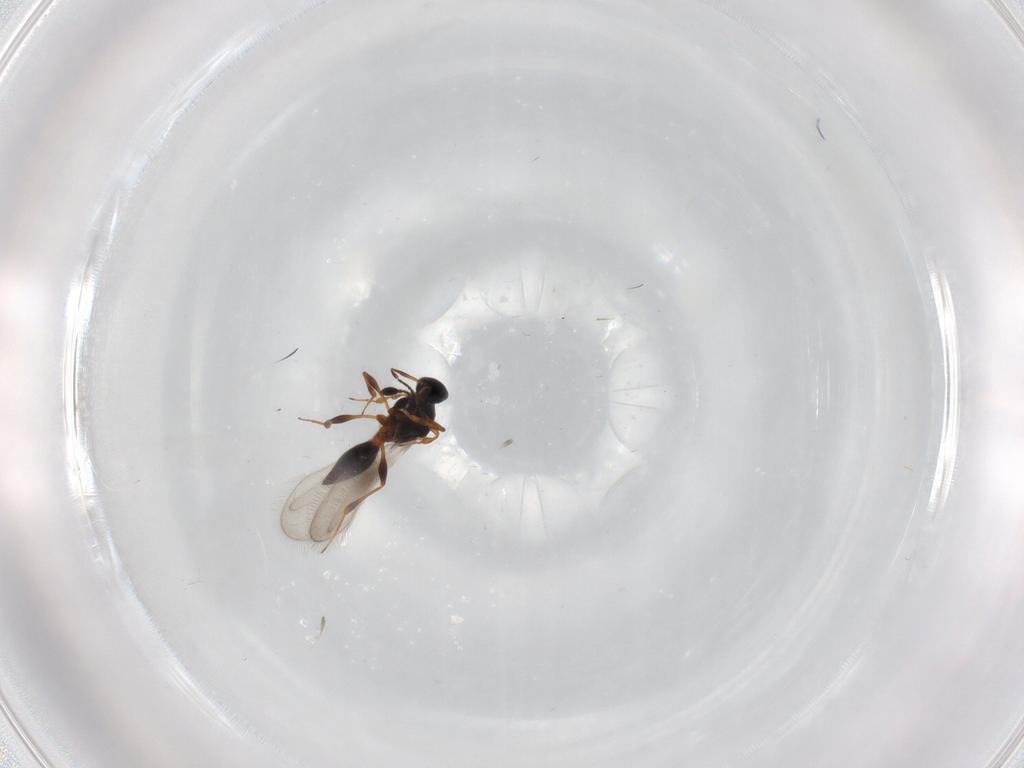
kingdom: Animalia
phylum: Arthropoda
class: Insecta
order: Hymenoptera
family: Platygastridae
